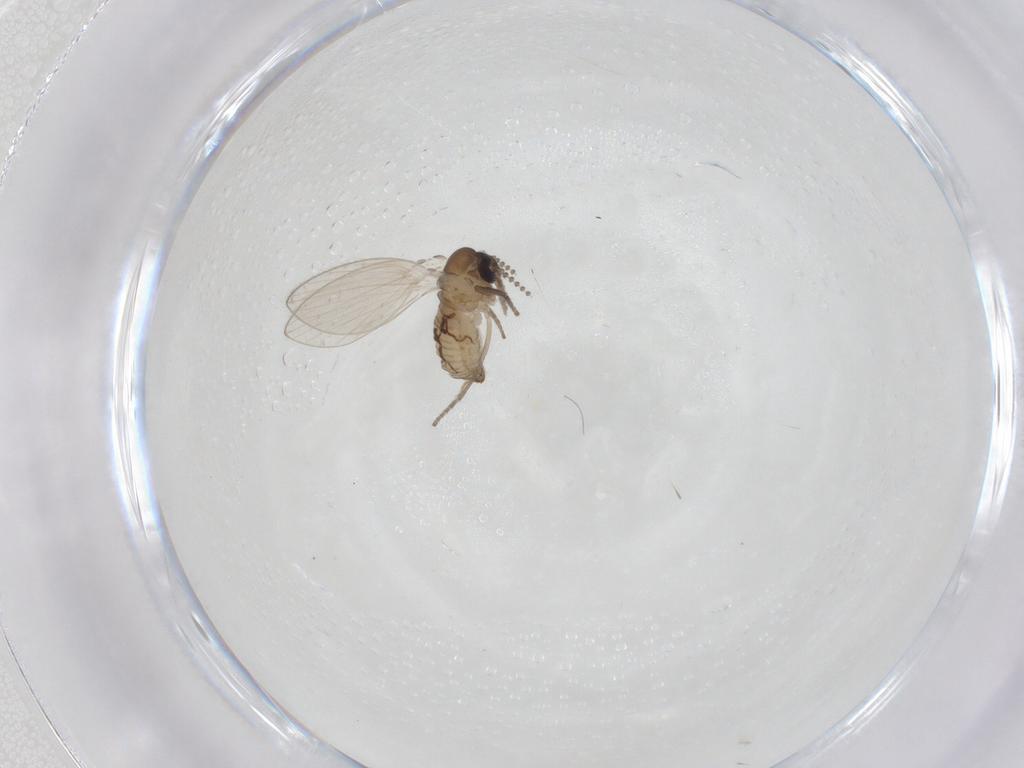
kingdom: Animalia
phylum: Arthropoda
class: Insecta
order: Diptera
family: Psychodidae
